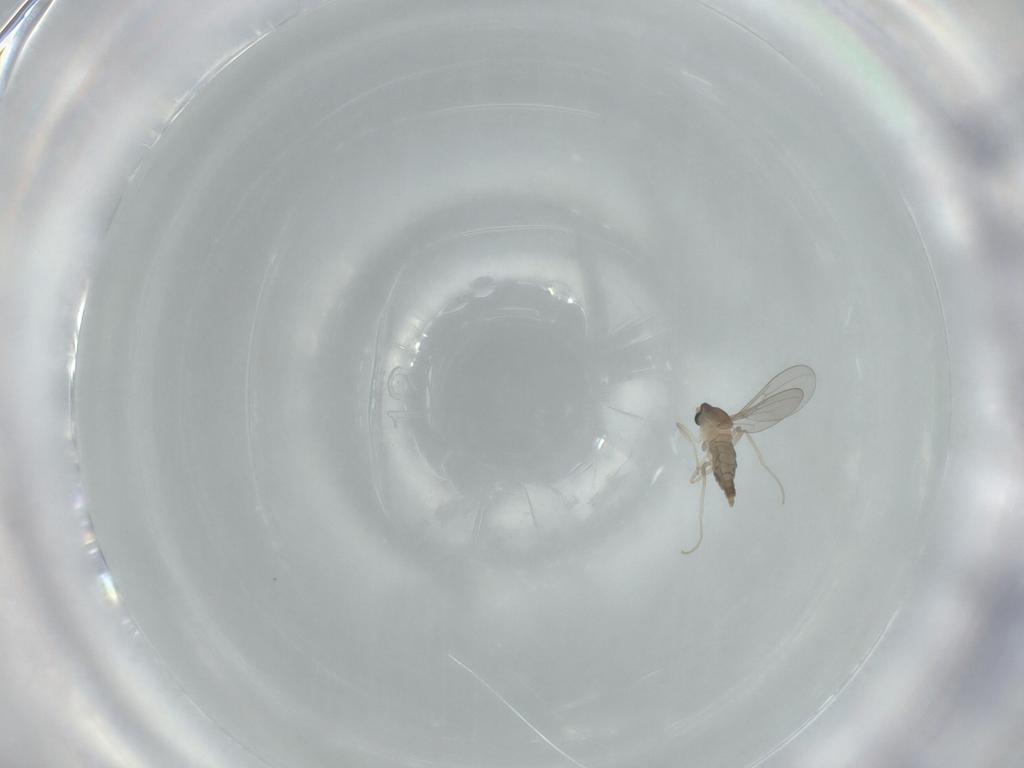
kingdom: Animalia
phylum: Arthropoda
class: Insecta
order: Diptera
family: Cecidomyiidae
